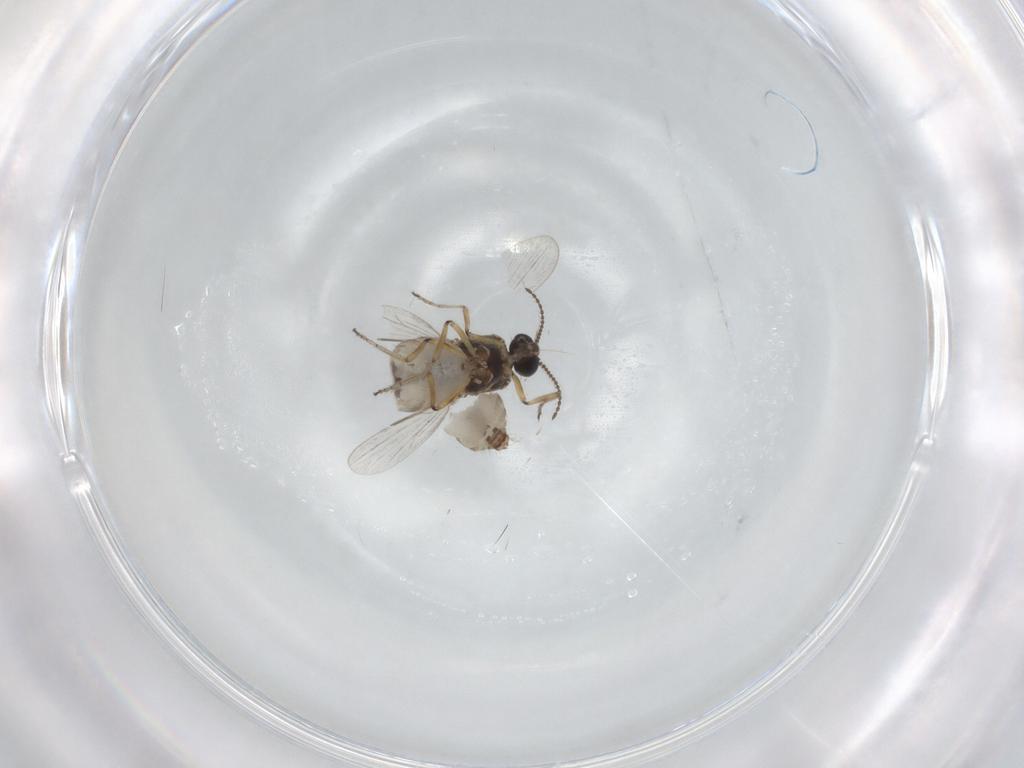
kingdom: Animalia
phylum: Arthropoda
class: Insecta
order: Diptera
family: Ceratopogonidae
